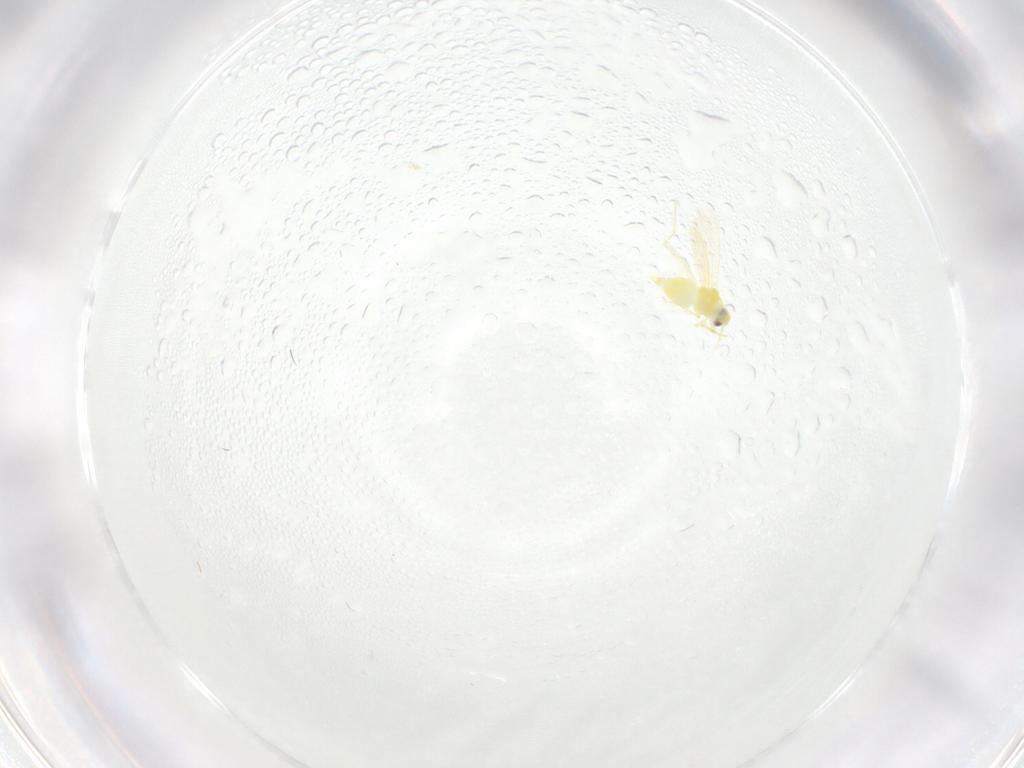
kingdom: Animalia
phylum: Arthropoda
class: Insecta
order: Hemiptera
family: Aleyrodidae
